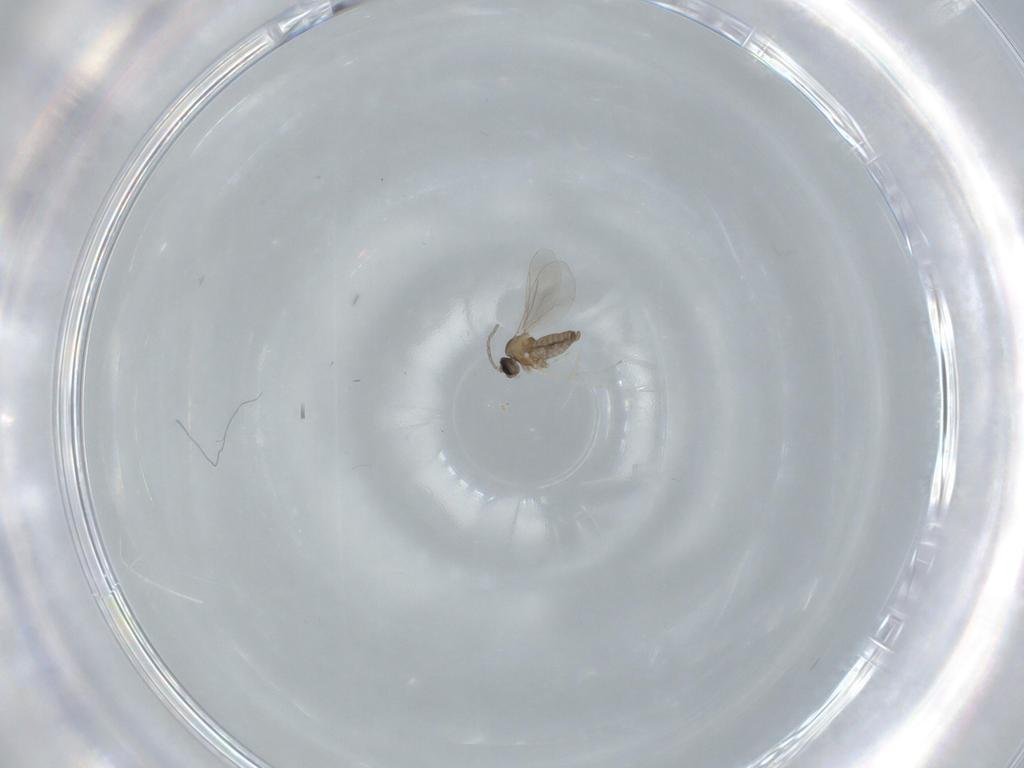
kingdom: Animalia
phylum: Arthropoda
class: Insecta
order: Diptera
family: Cecidomyiidae
